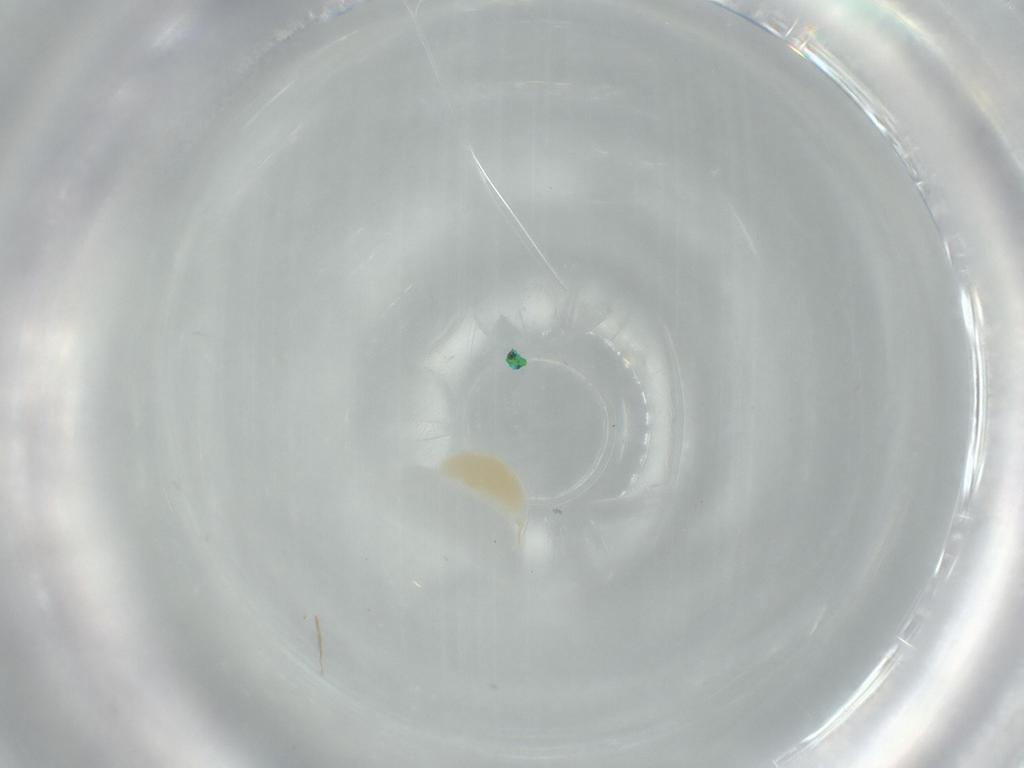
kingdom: Animalia
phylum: Arthropoda
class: Insecta
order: Hymenoptera
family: Ichneumonidae
